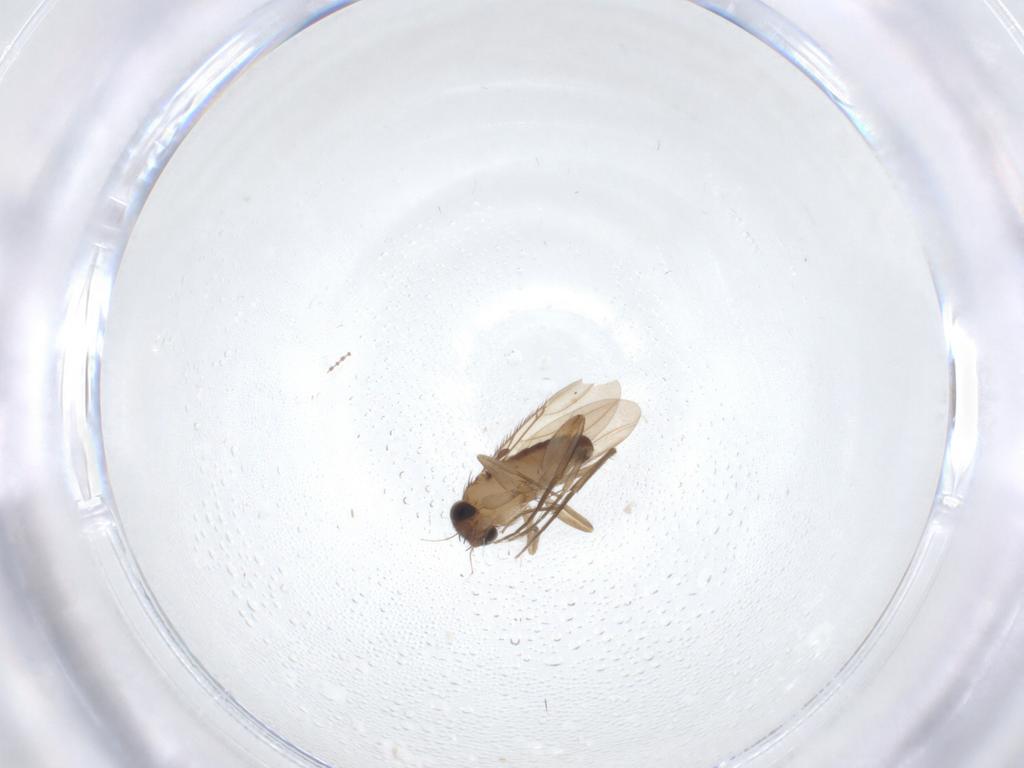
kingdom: Animalia
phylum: Arthropoda
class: Insecta
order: Diptera
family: Phoridae
